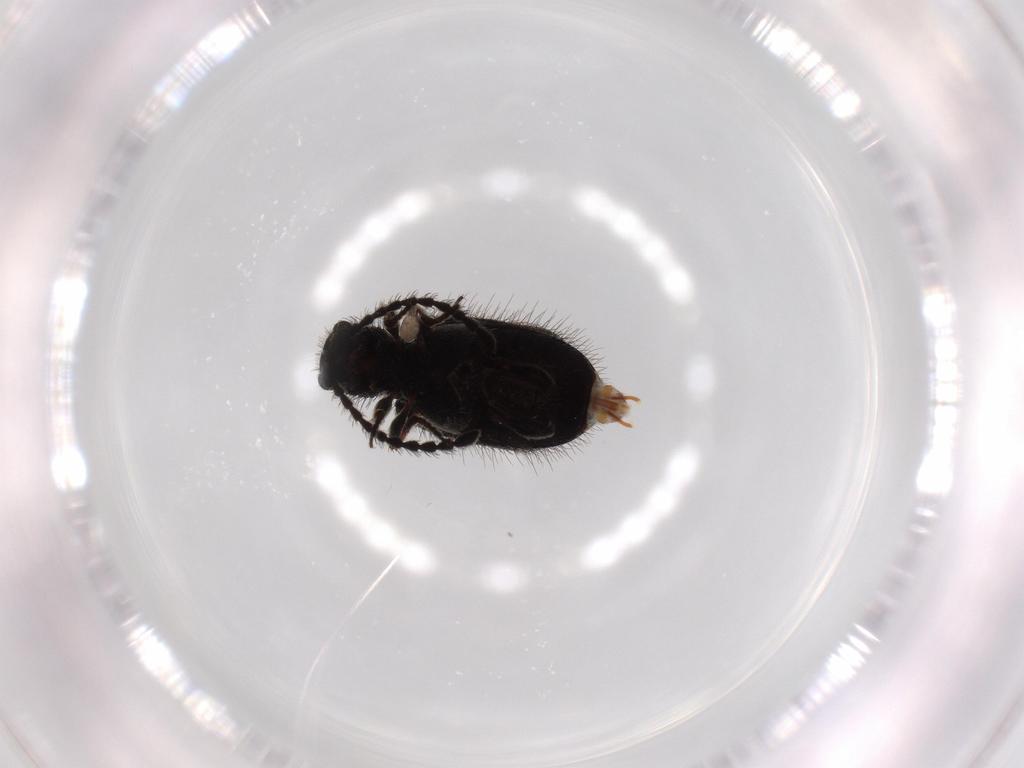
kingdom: Animalia
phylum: Arthropoda
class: Insecta
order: Coleoptera
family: Ptinidae
